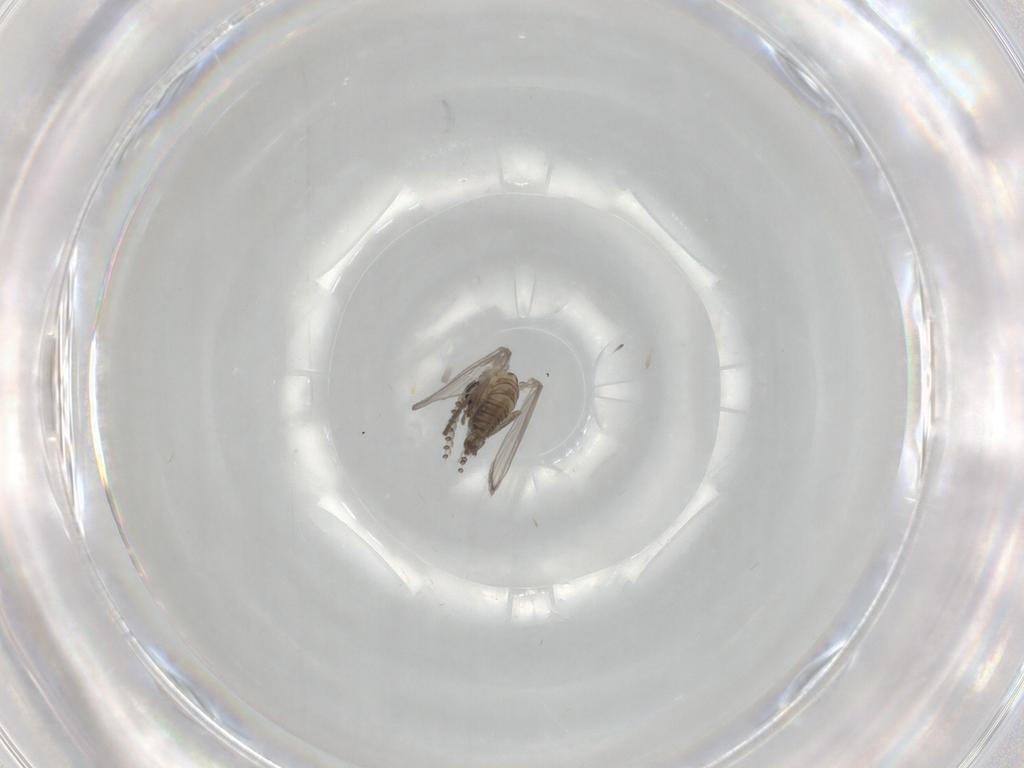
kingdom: Animalia
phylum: Arthropoda
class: Insecta
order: Diptera
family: Psychodidae
